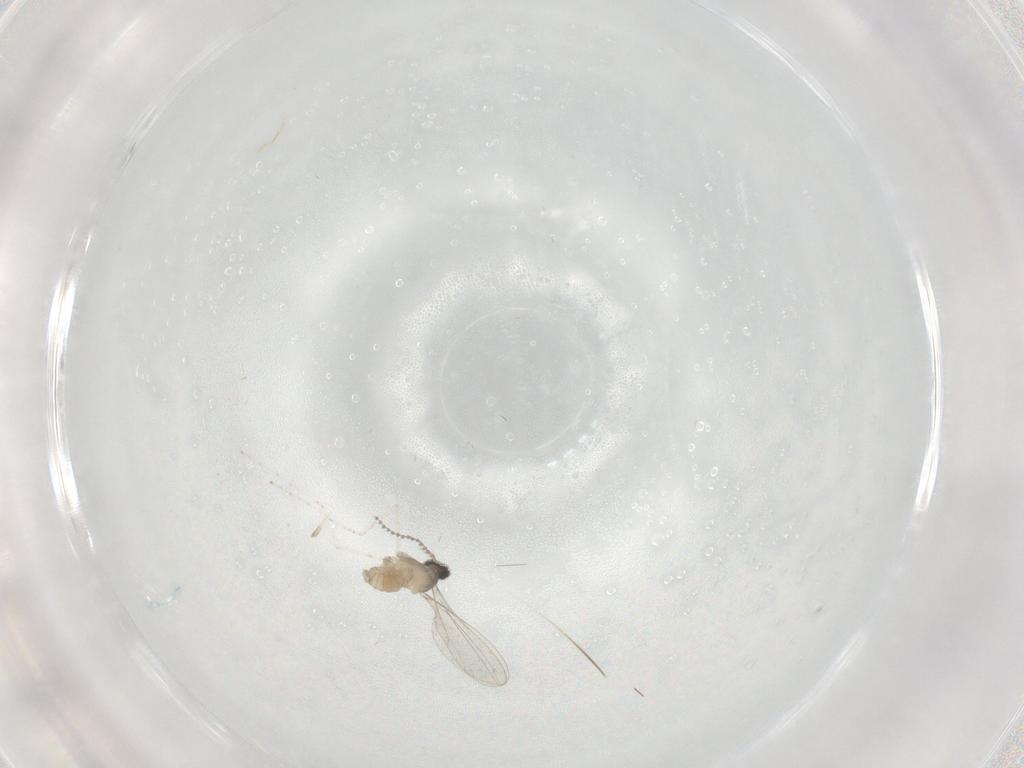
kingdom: Animalia
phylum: Arthropoda
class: Insecta
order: Diptera
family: Cecidomyiidae
